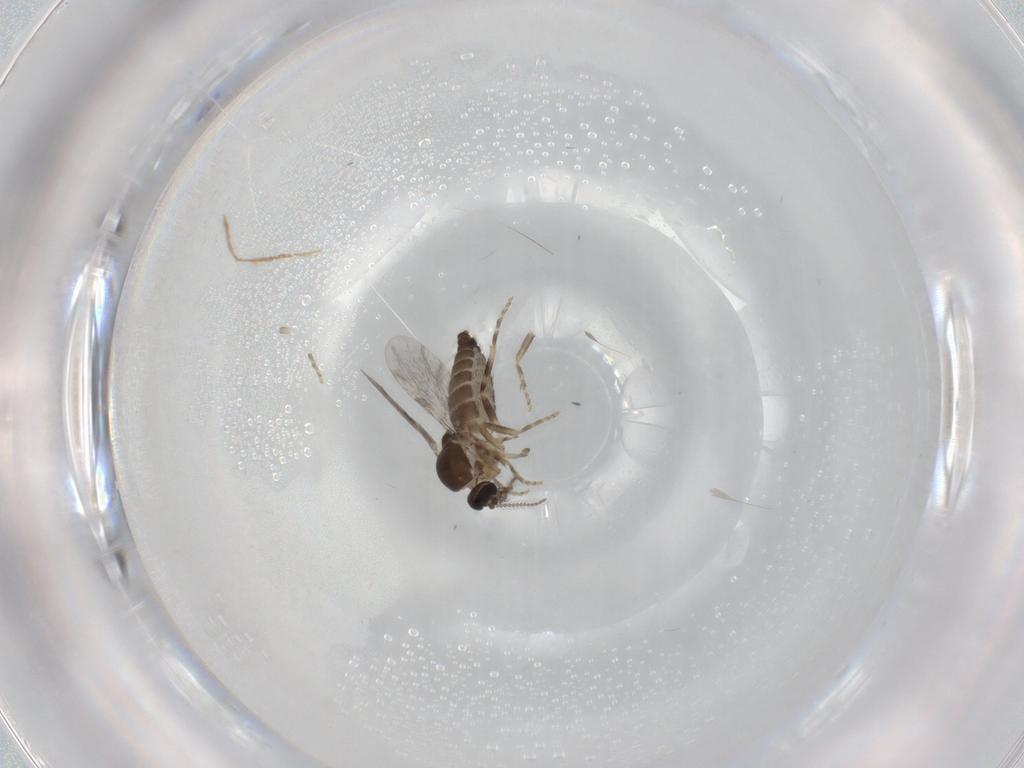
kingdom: Animalia
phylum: Arthropoda
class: Insecta
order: Diptera
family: Ceratopogonidae
